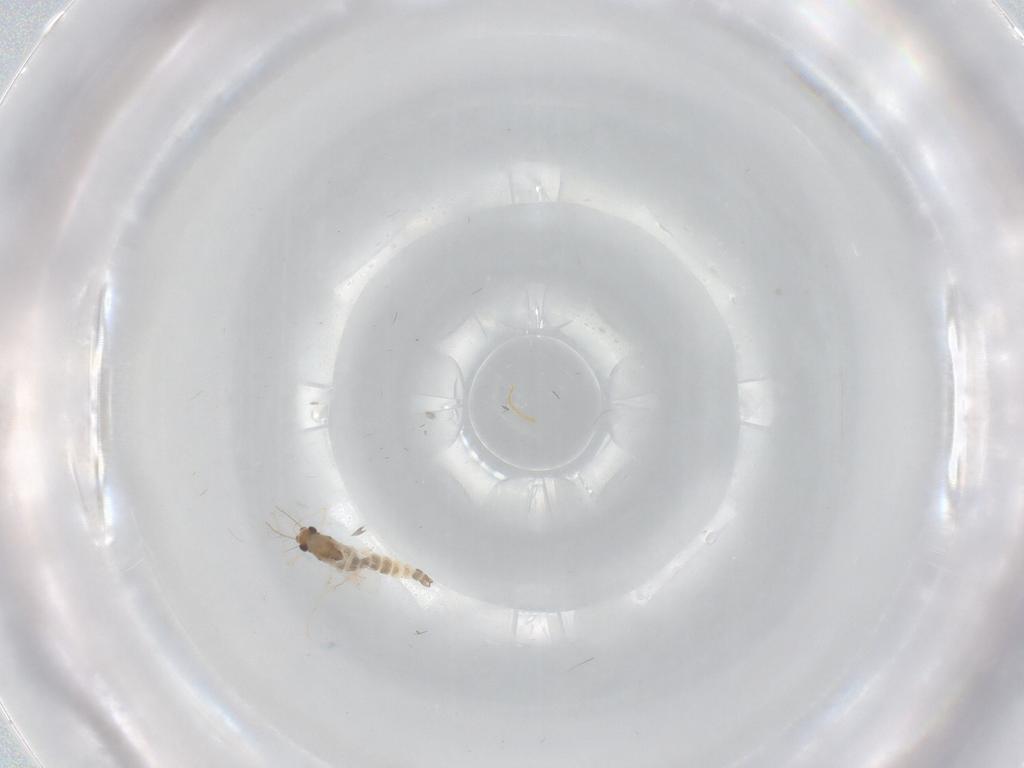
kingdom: Animalia
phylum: Arthropoda
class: Insecta
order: Diptera
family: Bibionidae
